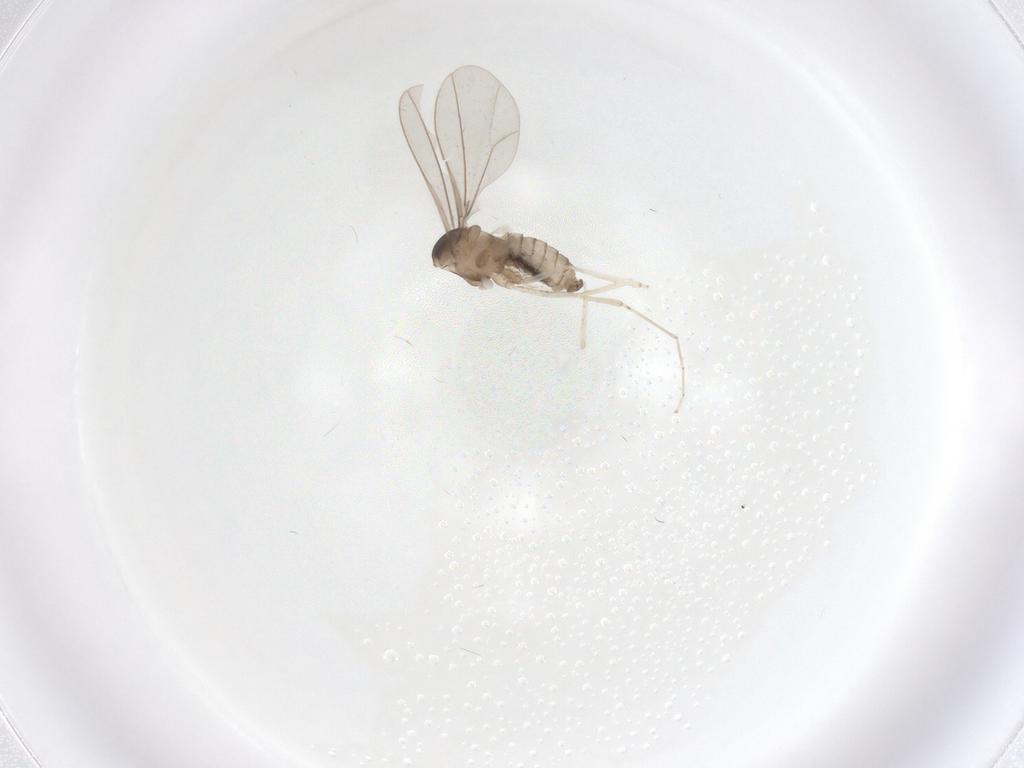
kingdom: Animalia
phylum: Arthropoda
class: Insecta
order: Diptera
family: Cecidomyiidae
